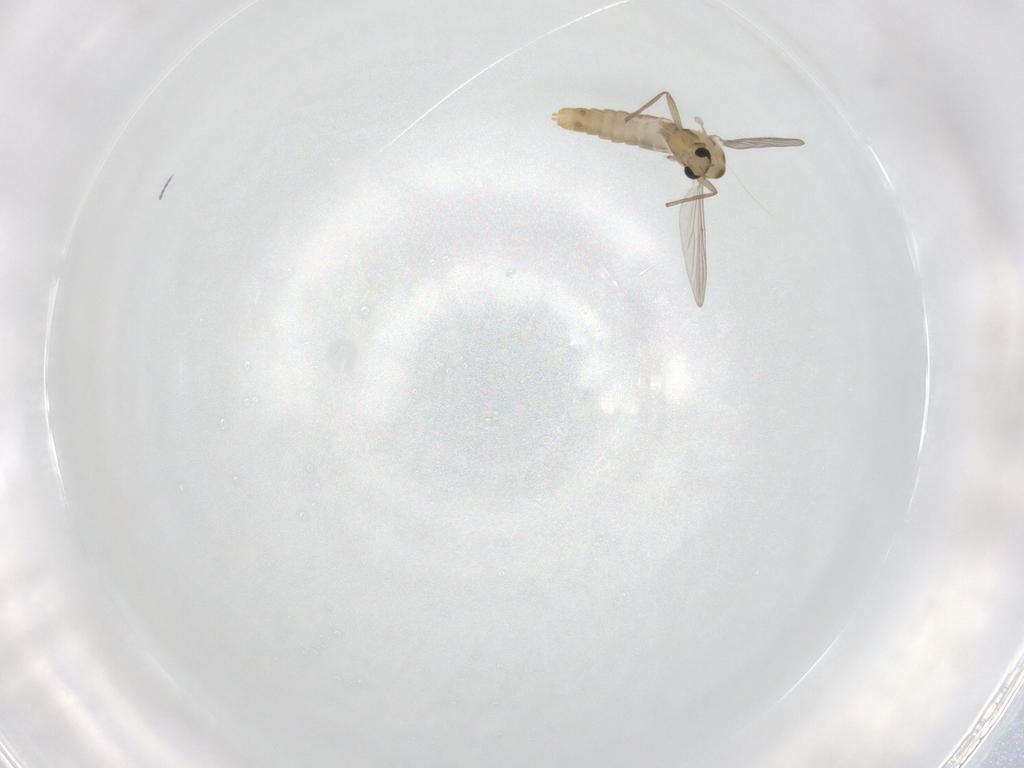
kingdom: Animalia
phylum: Arthropoda
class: Insecta
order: Diptera
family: Chironomidae
